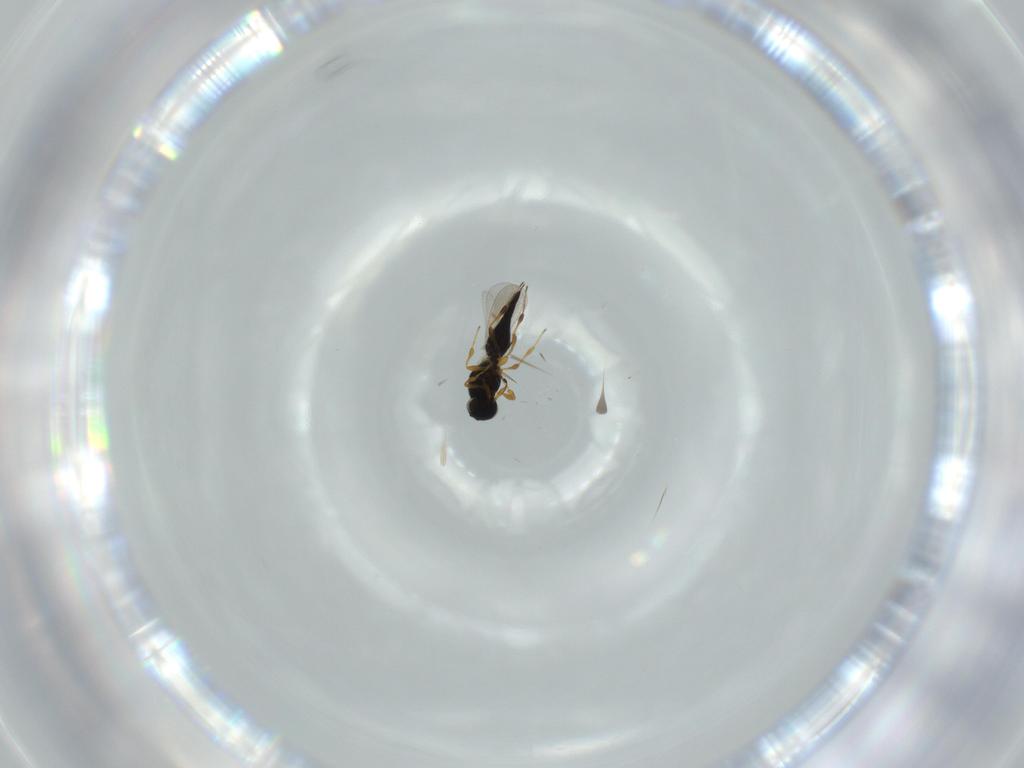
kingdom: Animalia
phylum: Arthropoda
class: Insecta
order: Hymenoptera
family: Platygastridae
